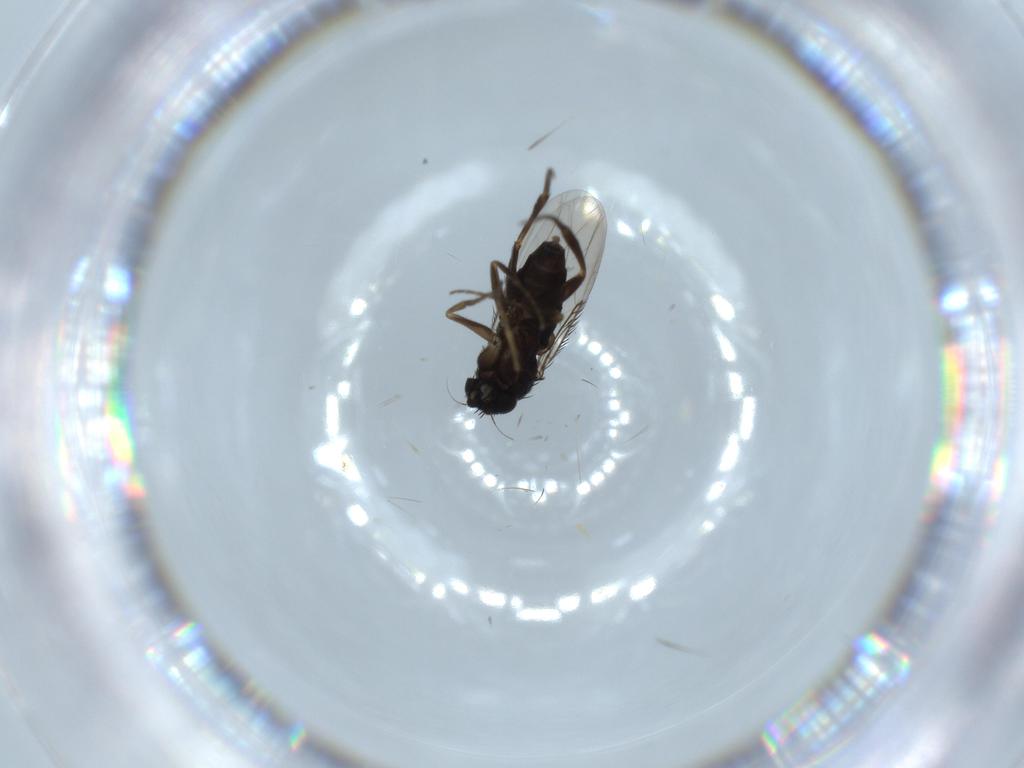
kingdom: Animalia
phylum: Arthropoda
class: Insecta
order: Diptera
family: Phoridae
